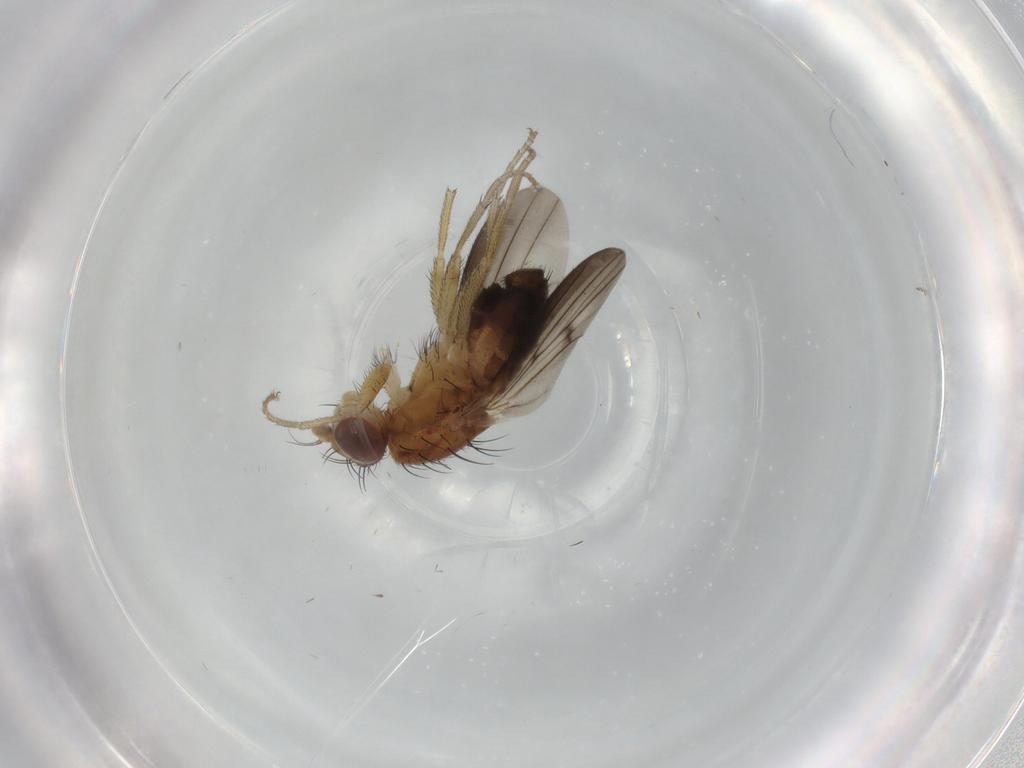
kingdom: Animalia
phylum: Arthropoda
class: Insecta
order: Diptera
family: Heleomyzidae
